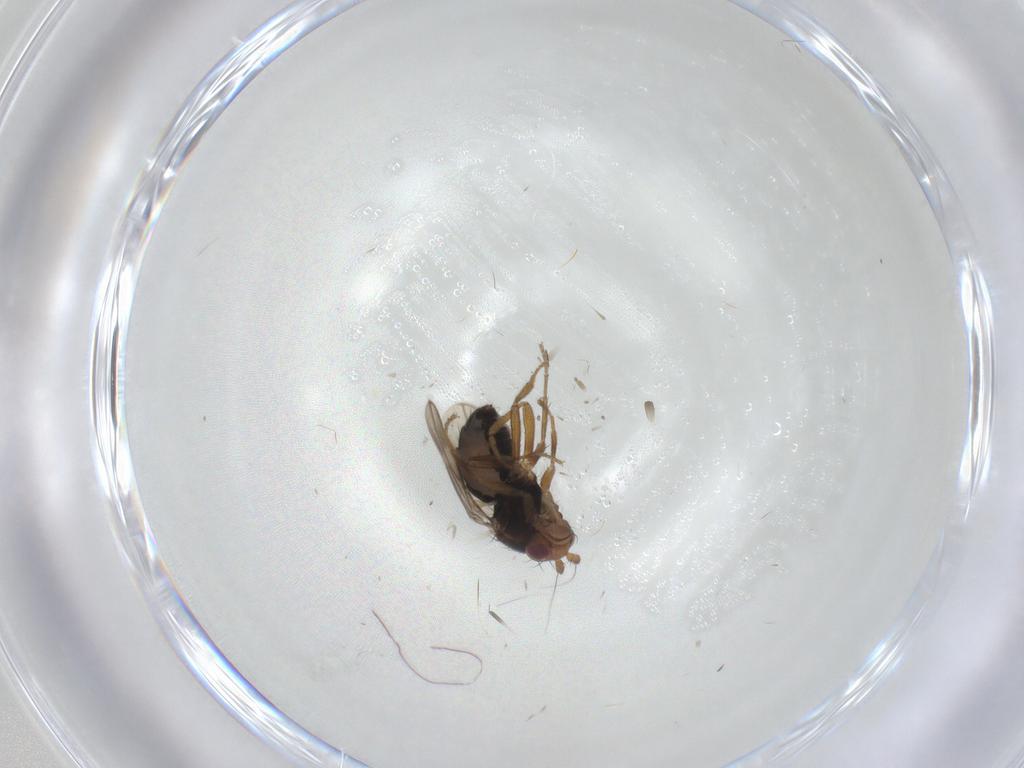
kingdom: Animalia
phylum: Arthropoda
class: Insecta
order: Diptera
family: Sphaeroceridae
